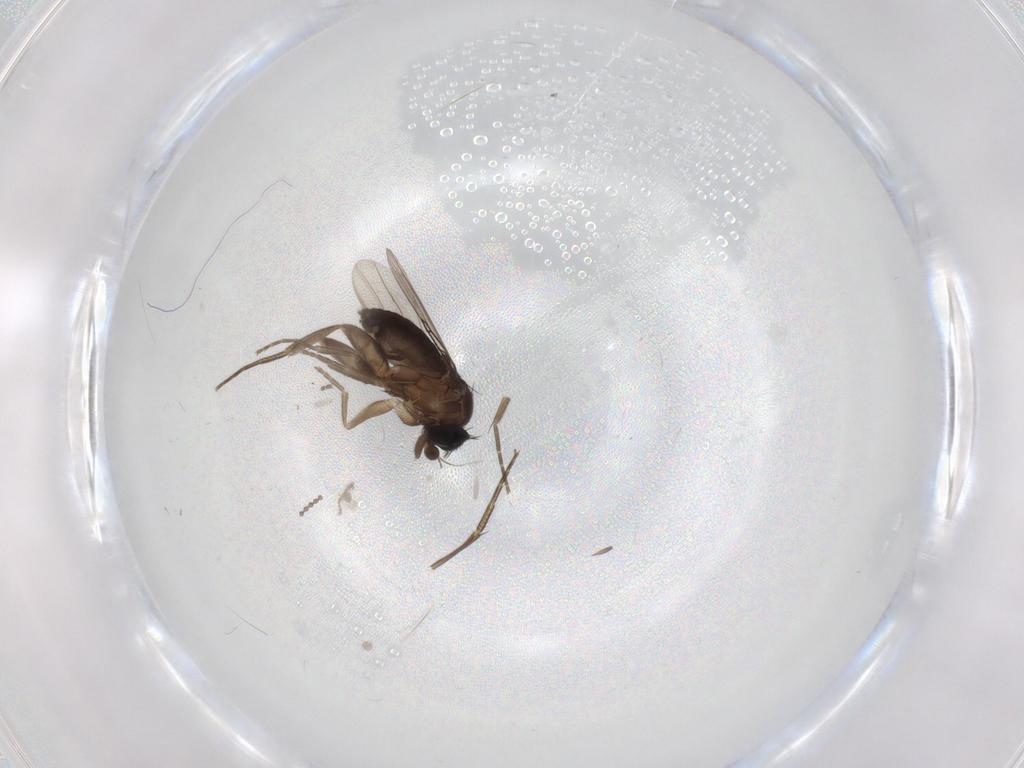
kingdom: Animalia
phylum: Arthropoda
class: Insecta
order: Diptera
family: Phoridae
